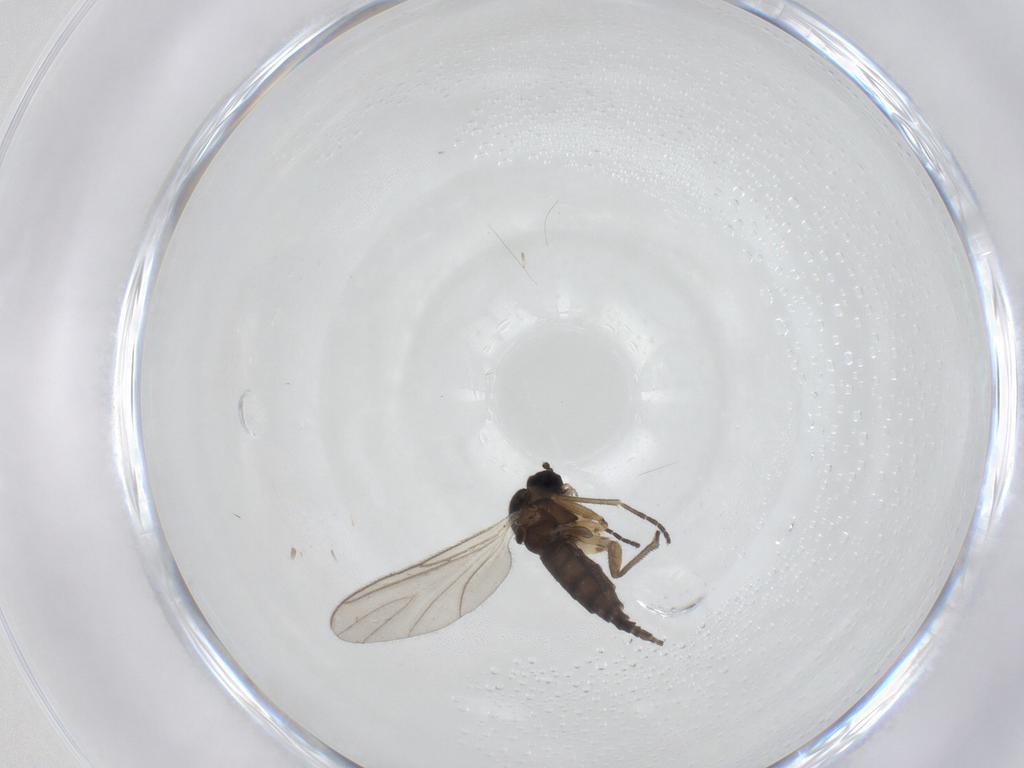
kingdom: Animalia
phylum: Arthropoda
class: Insecta
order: Diptera
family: Sciaridae
